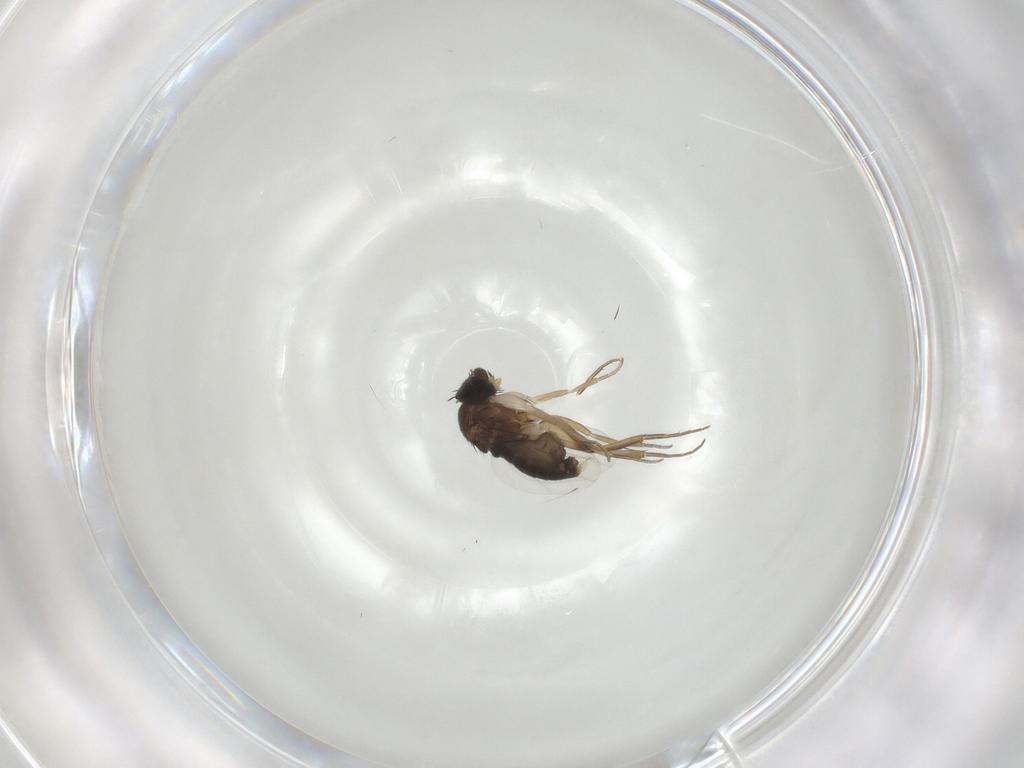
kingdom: Animalia
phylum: Arthropoda
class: Insecta
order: Diptera
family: Phoridae
